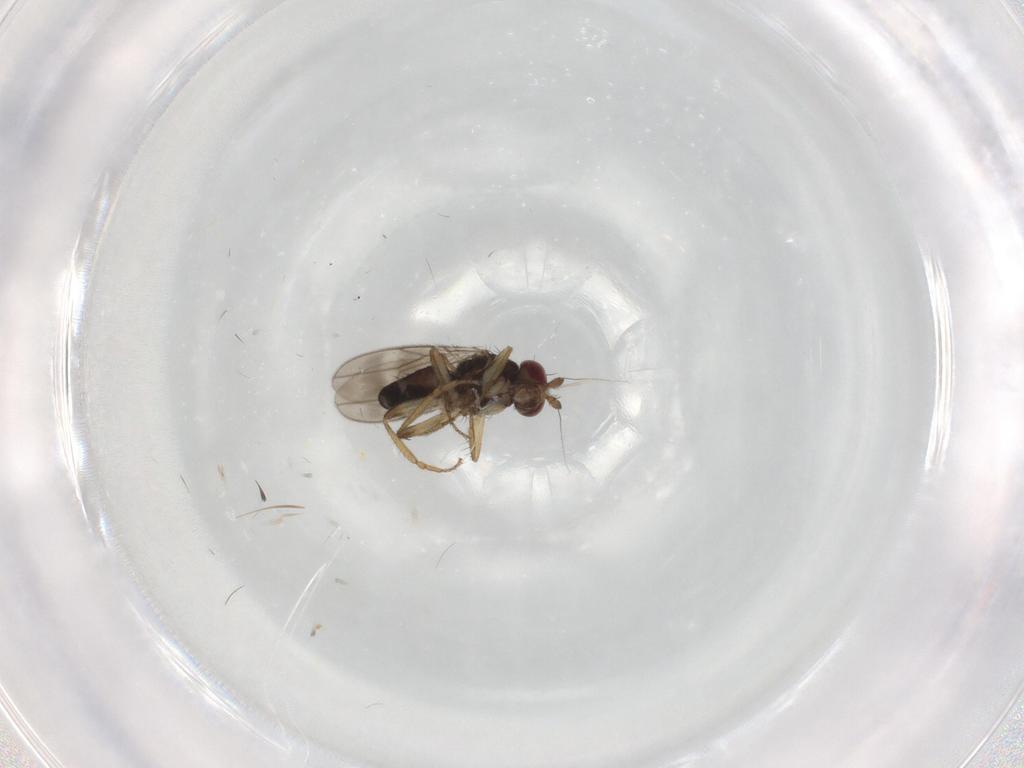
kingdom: Animalia
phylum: Arthropoda
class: Insecta
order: Diptera
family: Sphaeroceridae
